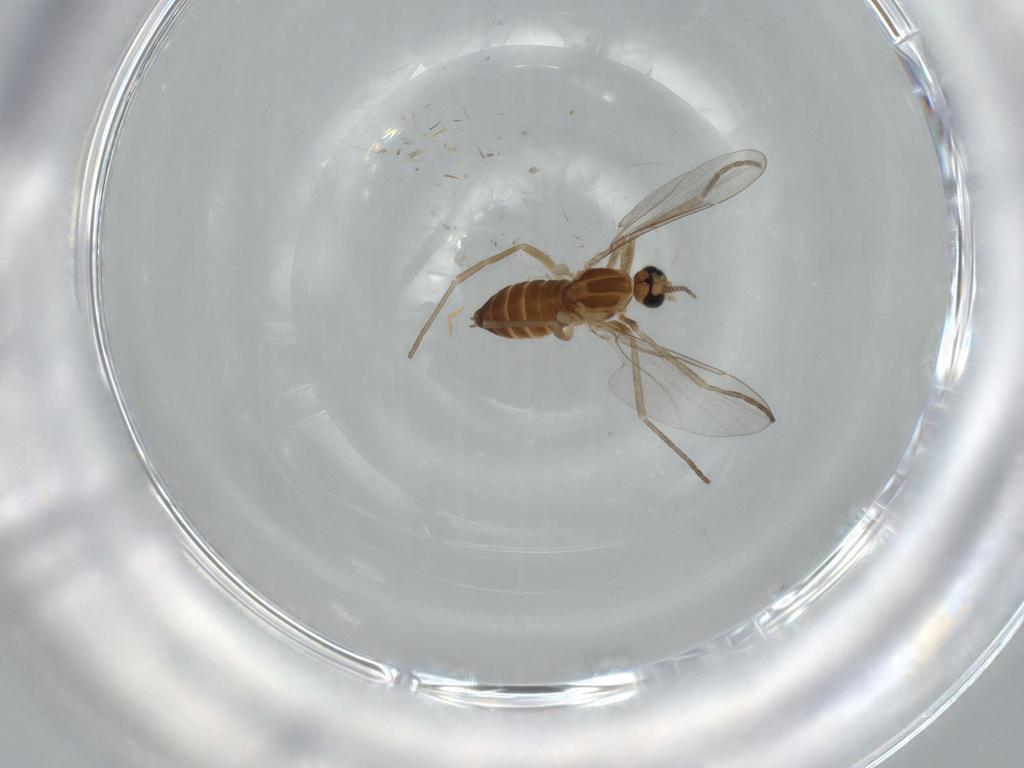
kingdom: Animalia
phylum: Arthropoda
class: Insecta
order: Diptera
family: Cecidomyiidae
